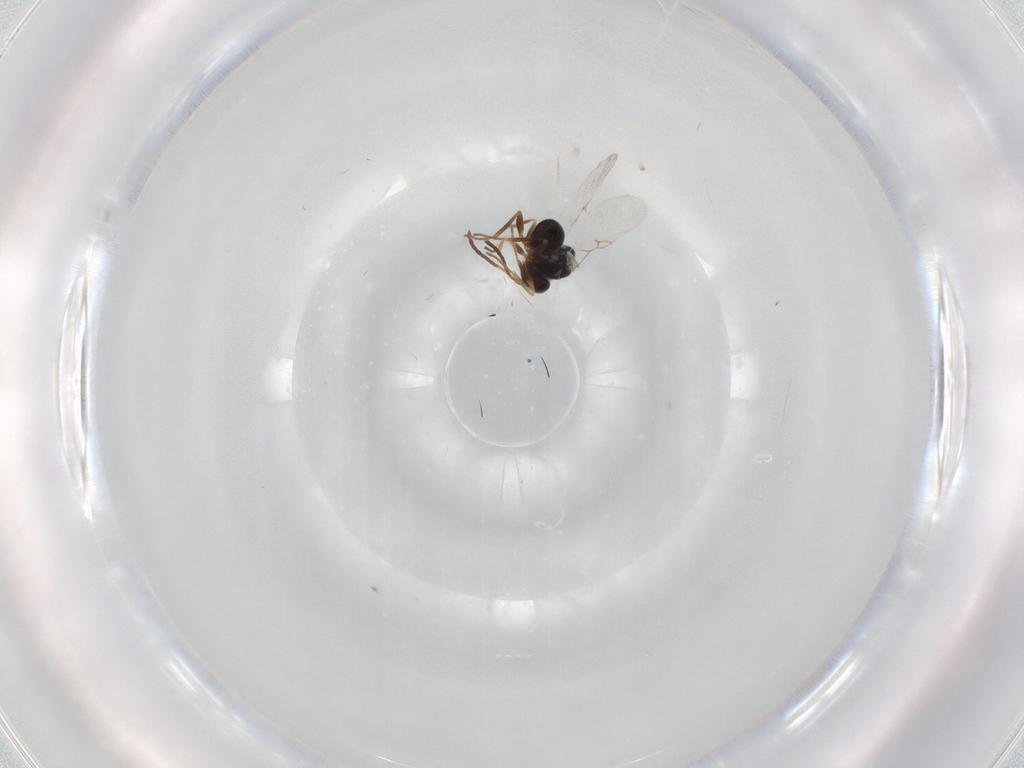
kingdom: Animalia
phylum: Arthropoda
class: Insecta
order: Hymenoptera
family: Figitidae
